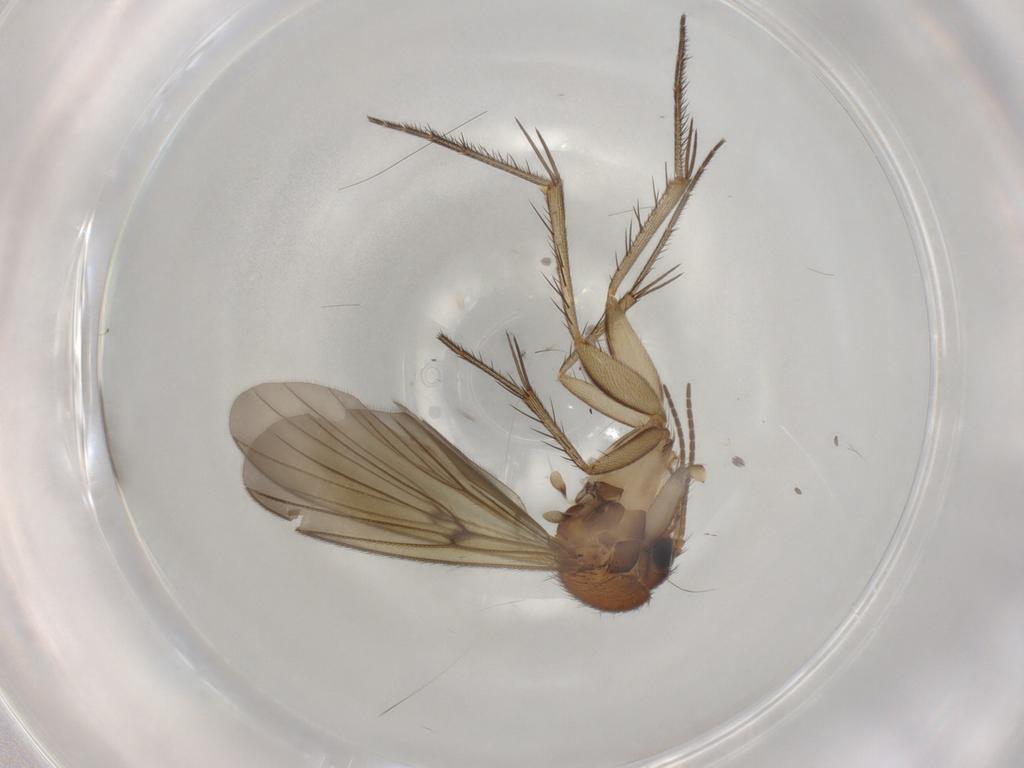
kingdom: Animalia
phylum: Arthropoda
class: Insecta
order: Diptera
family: Mycetophilidae
